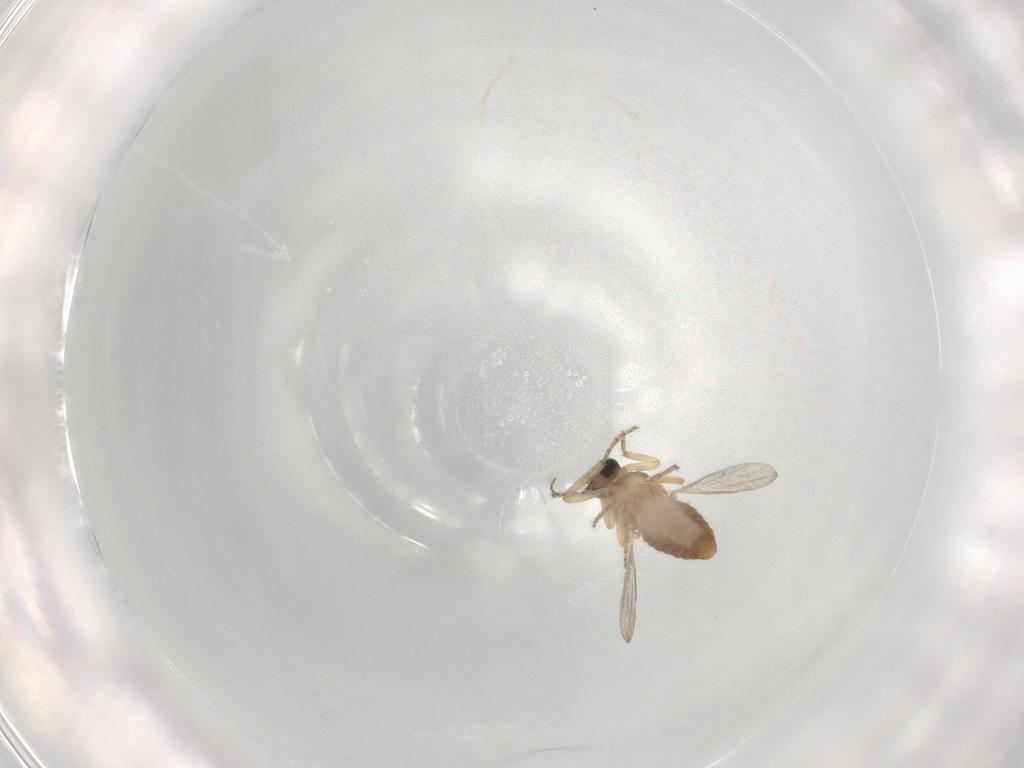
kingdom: Animalia
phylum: Arthropoda
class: Insecta
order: Diptera
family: Ceratopogonidae
